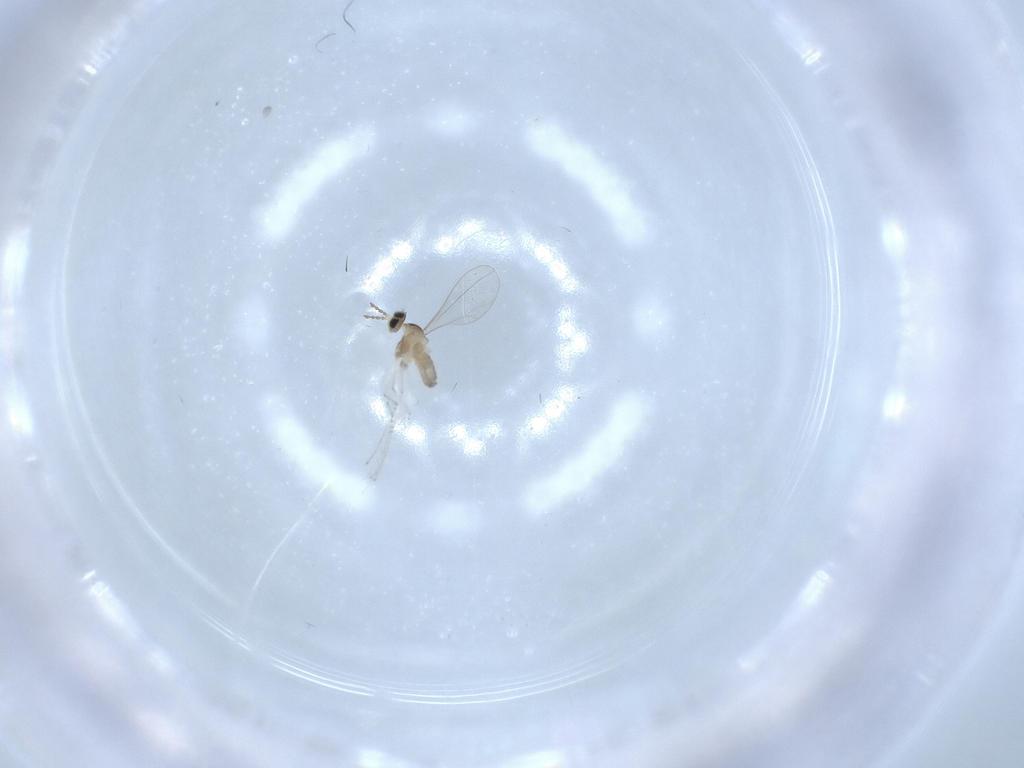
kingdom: Animalia
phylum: Arthropoda
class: Insecta
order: Diptera
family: Cecidomyiidae
